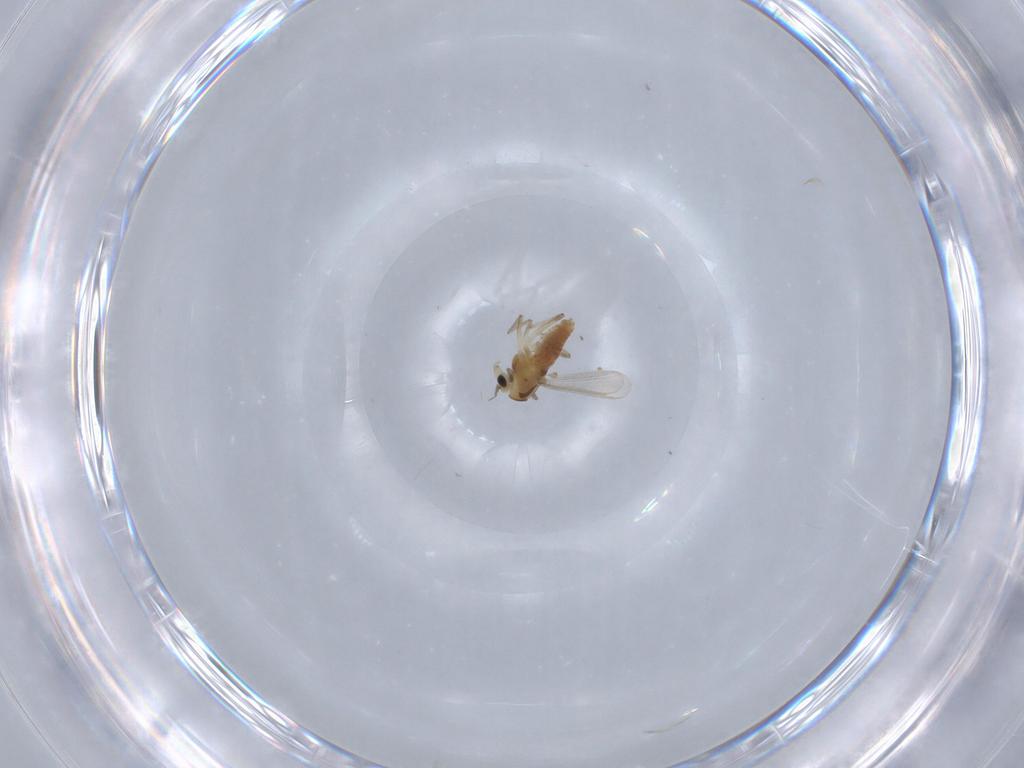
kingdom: Animalia
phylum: Arthropoda
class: Insecta
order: Diptera
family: Chironomidae
